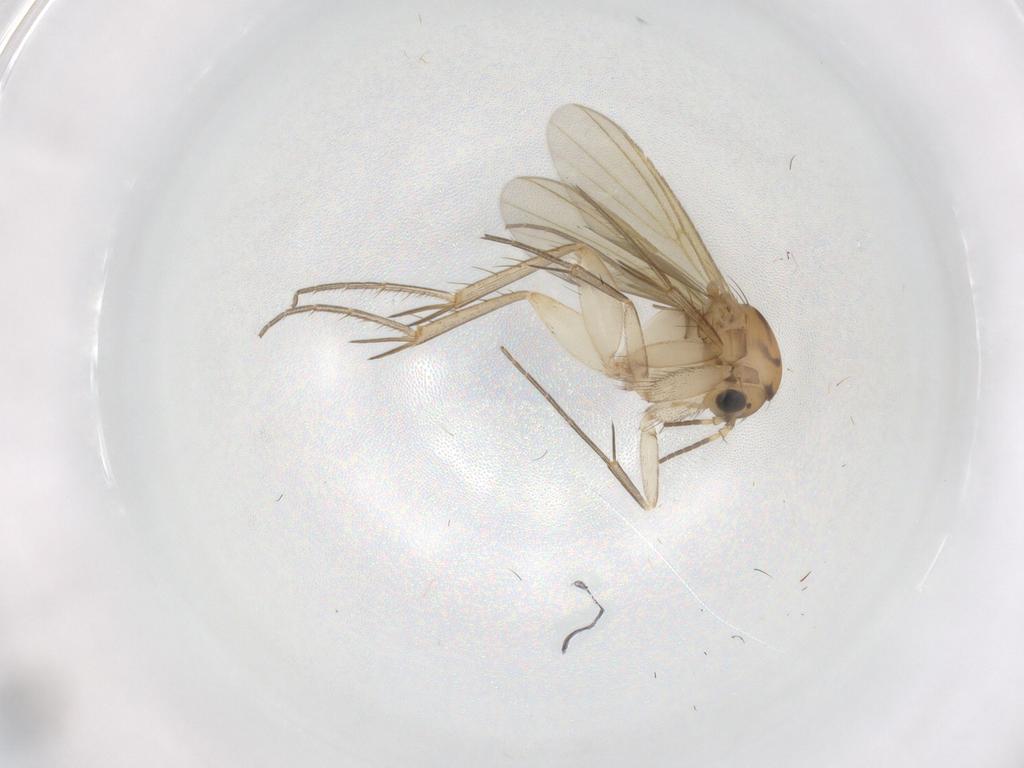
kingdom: Animalia
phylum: Arthropoda
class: Insecta
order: Diptera
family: Mycetophilidae
